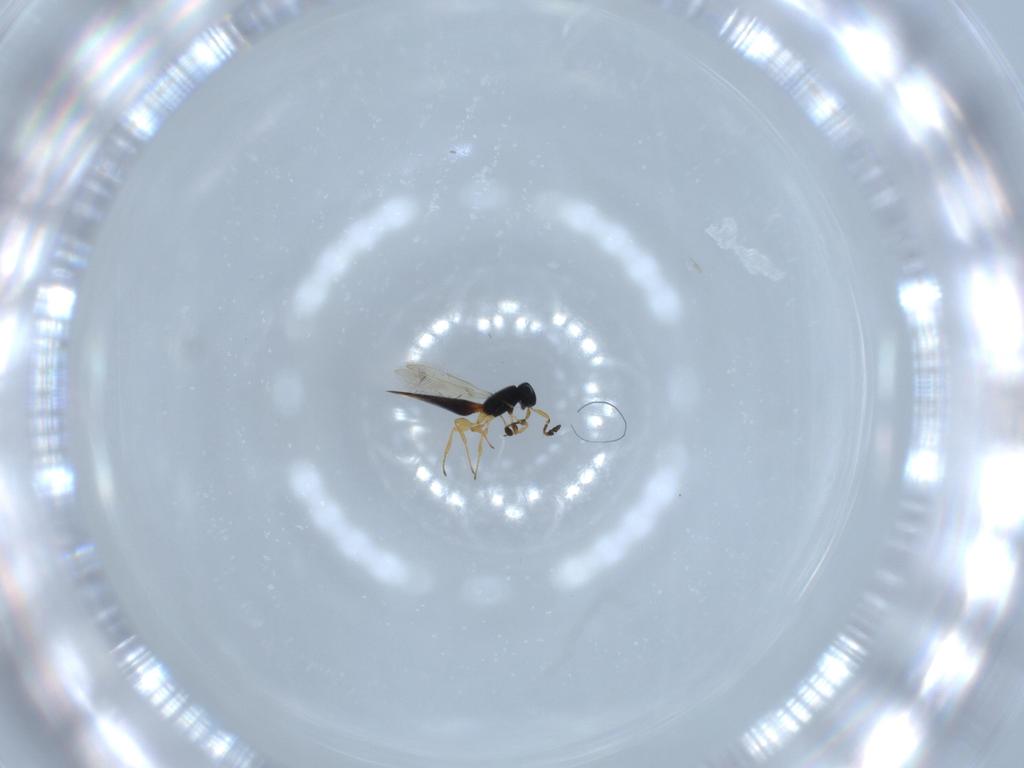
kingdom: Animalia
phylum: Arthropoda
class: Insecta
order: Hymenoptera
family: Scelionidae
